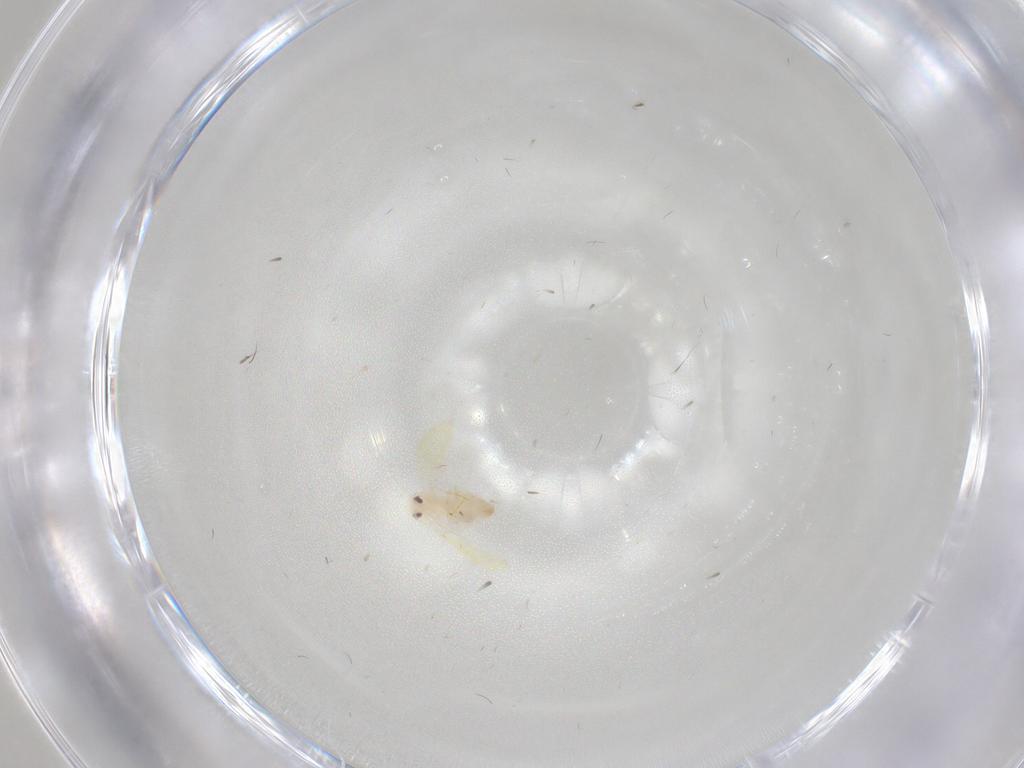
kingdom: Animalia
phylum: Arthropoda
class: Insecta
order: Hemiptera
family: Aleyrodidae
